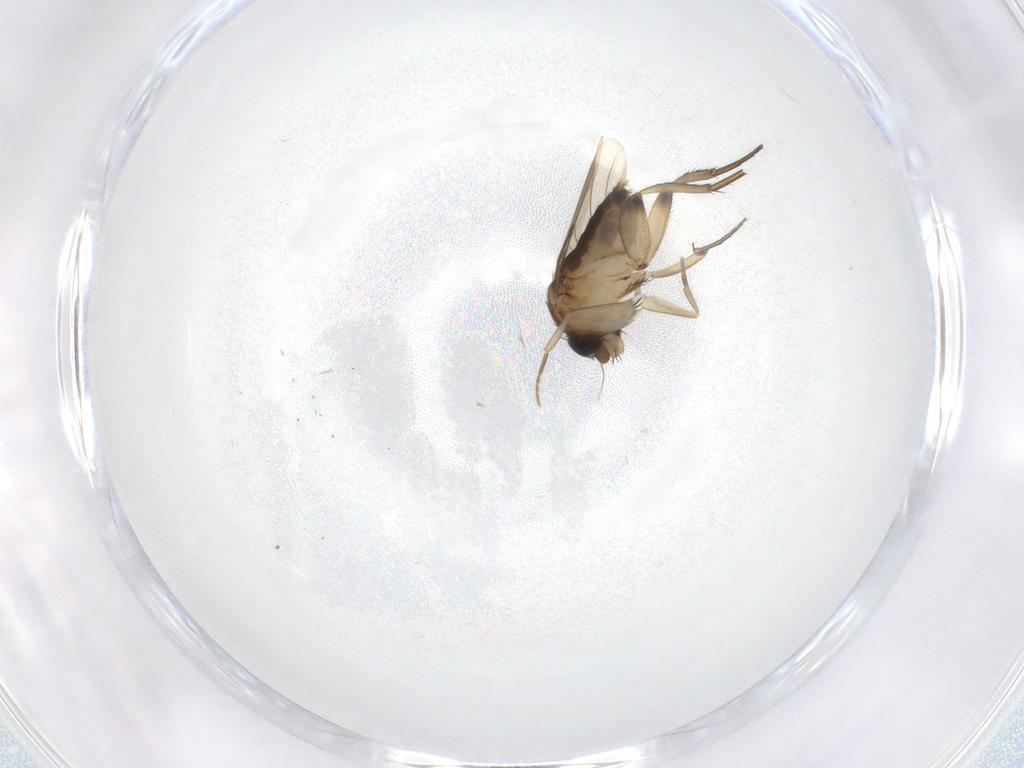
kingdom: Animalia
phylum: Arthropoda
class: Insecta
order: Diptera
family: Phoridae
